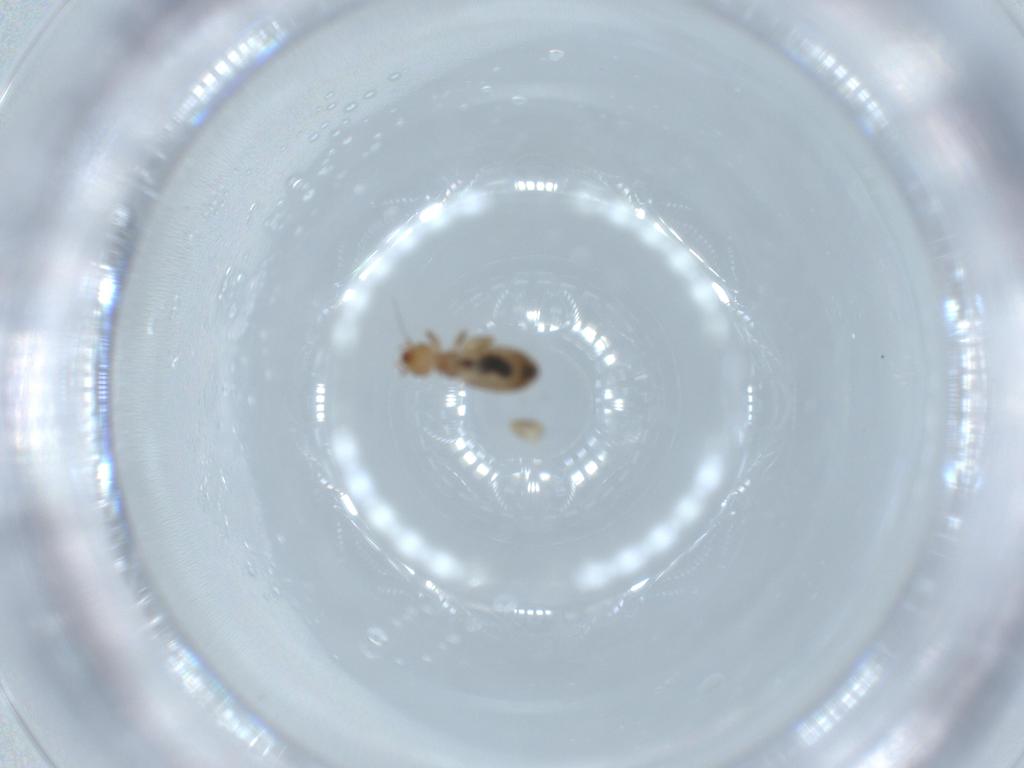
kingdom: Animalia
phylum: Arthropoda
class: Insecta
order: Psocodea
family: Liposcelididae
